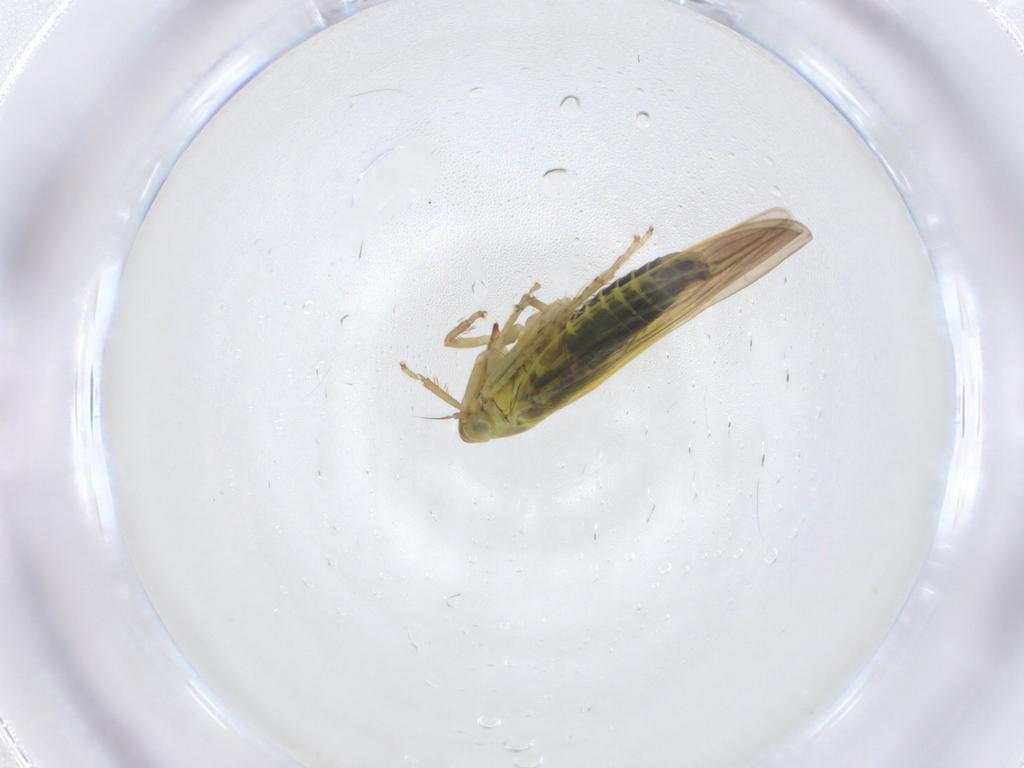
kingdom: Animalia
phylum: Arthropoda
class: Insecta
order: Hemiptera
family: Cicadellidae
